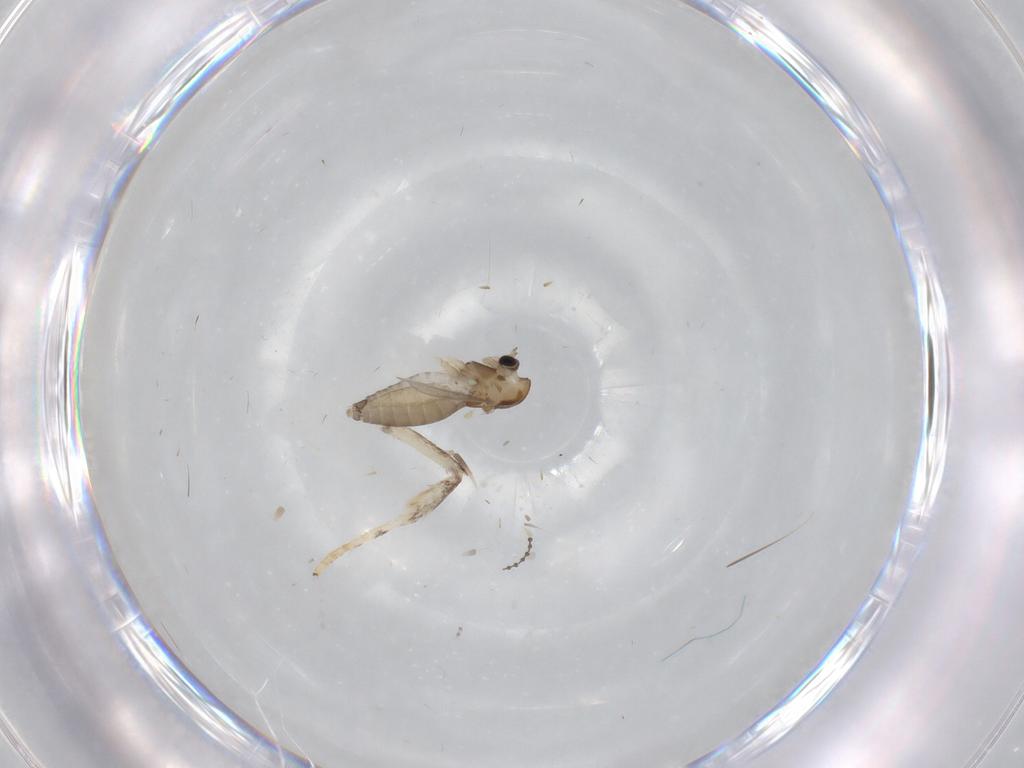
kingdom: Animalia
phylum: Arthropoda
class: Insecta
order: Diptera
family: Chironomidae
